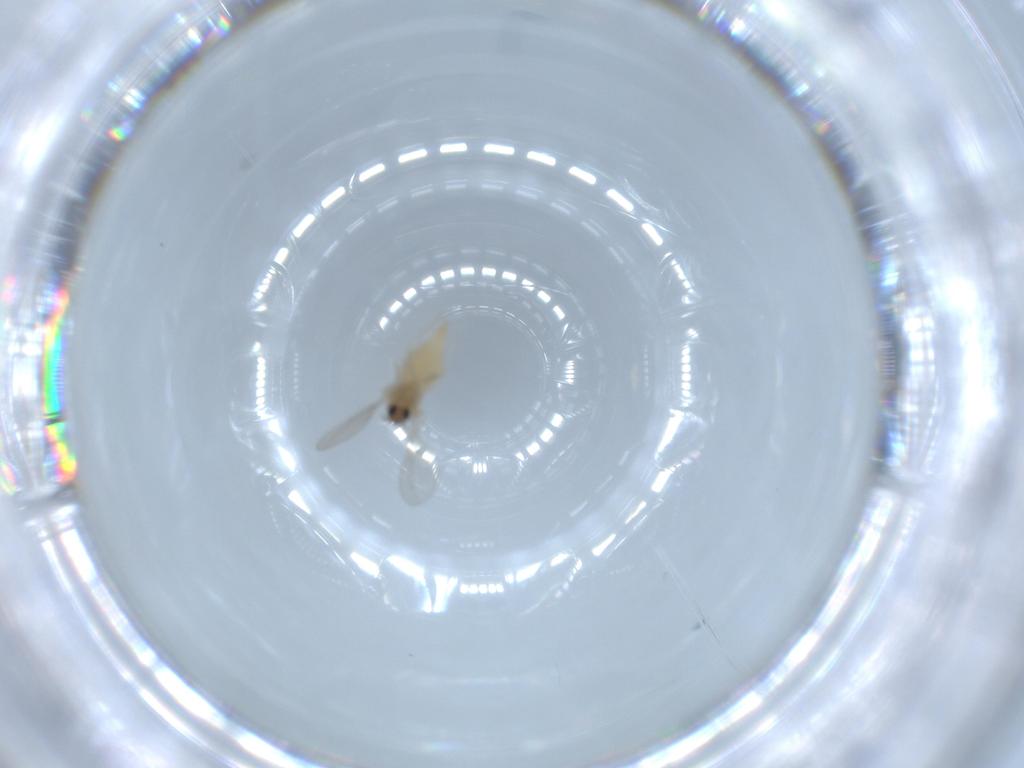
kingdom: Animalia
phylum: Arthropoda
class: Insecta
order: Diptera
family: Cecidomyiidae
